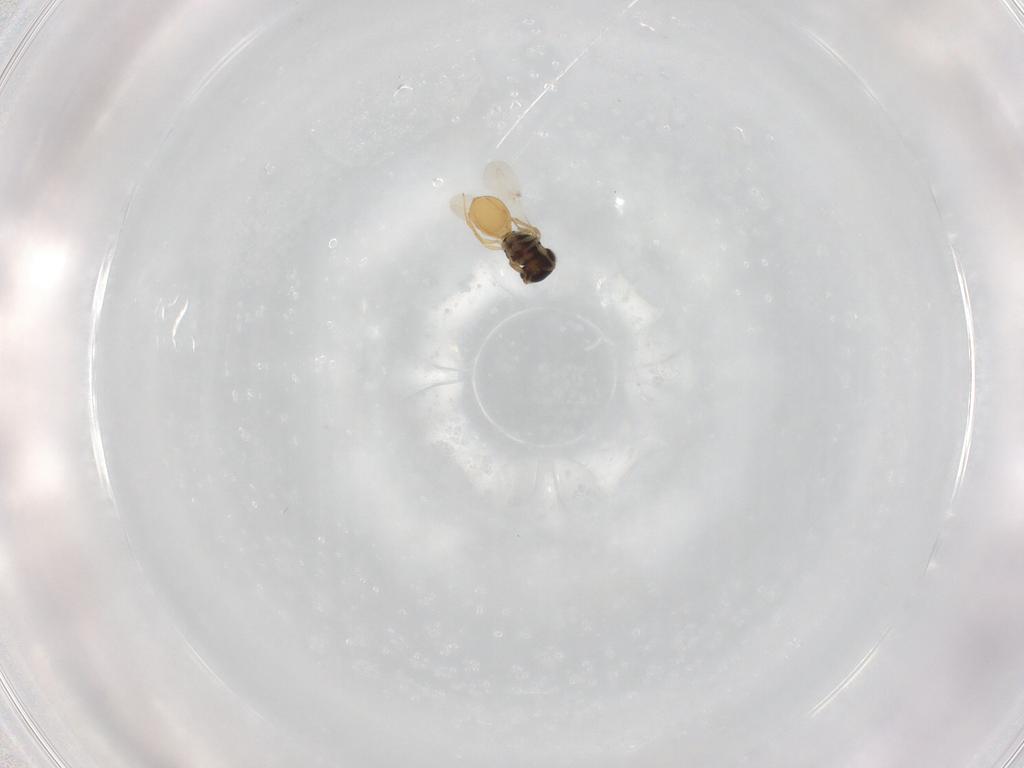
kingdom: Animalia
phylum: Arthropoda
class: Insecta
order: Hymenoptera
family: Scelionidae
